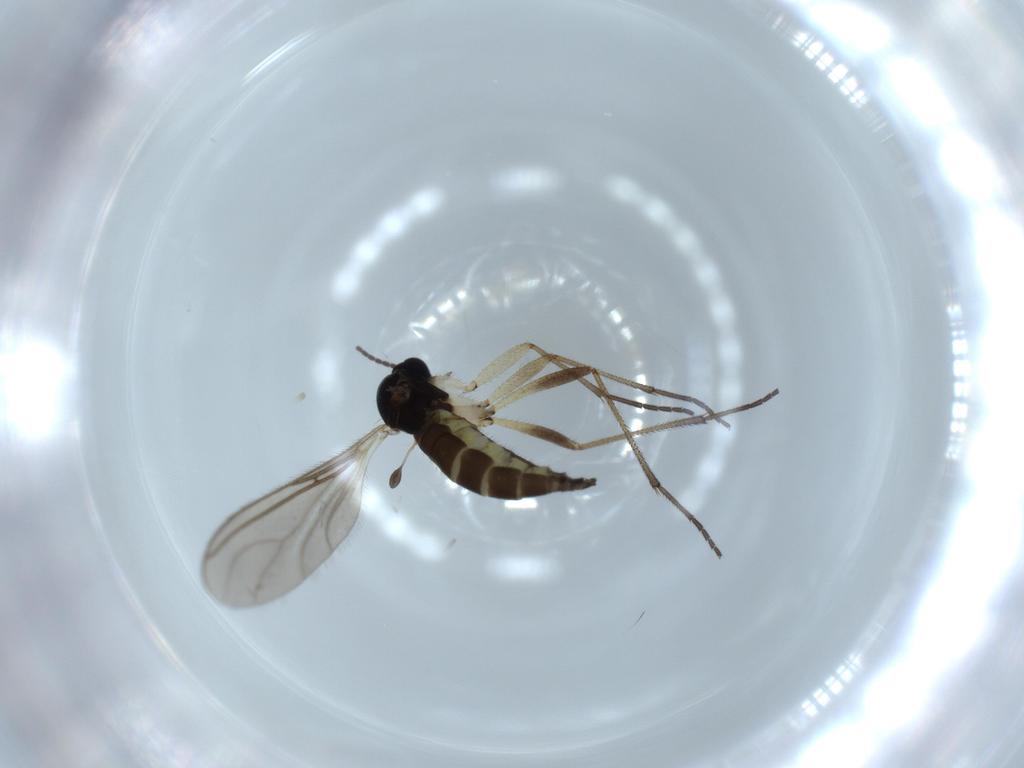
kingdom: Animalia
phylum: Arthropoda
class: Insecta
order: Diptera
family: Sciaridae
